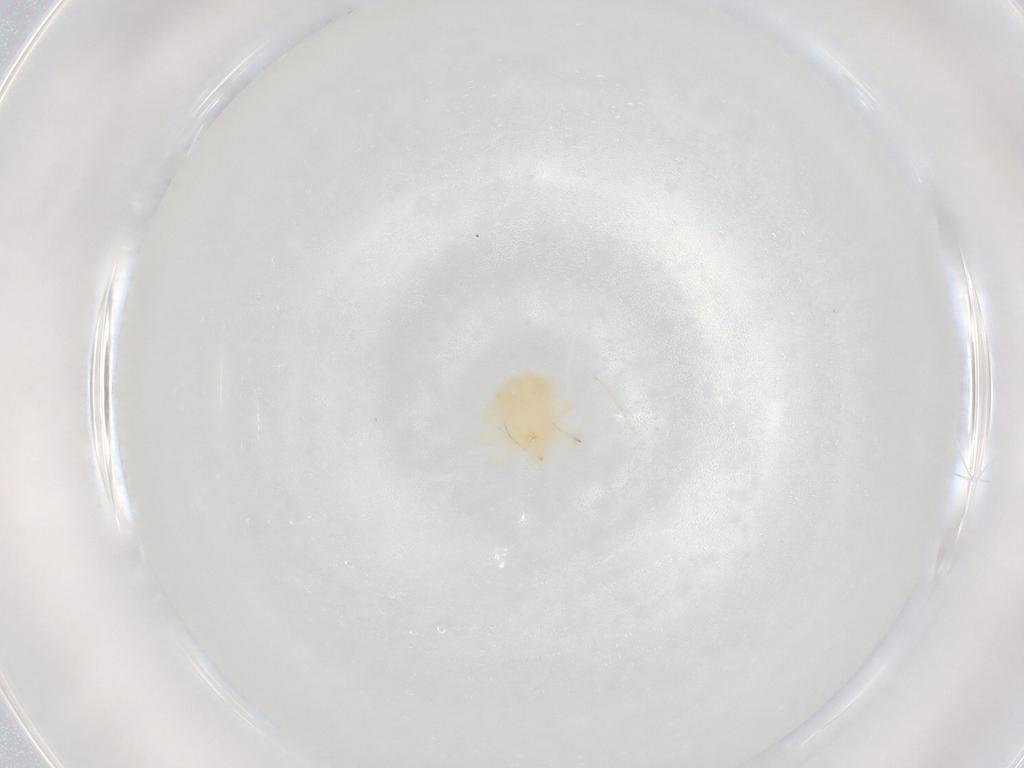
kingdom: Animalia
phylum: Arthropoda
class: Arachnida
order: Trombidiformes
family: Anystidae
